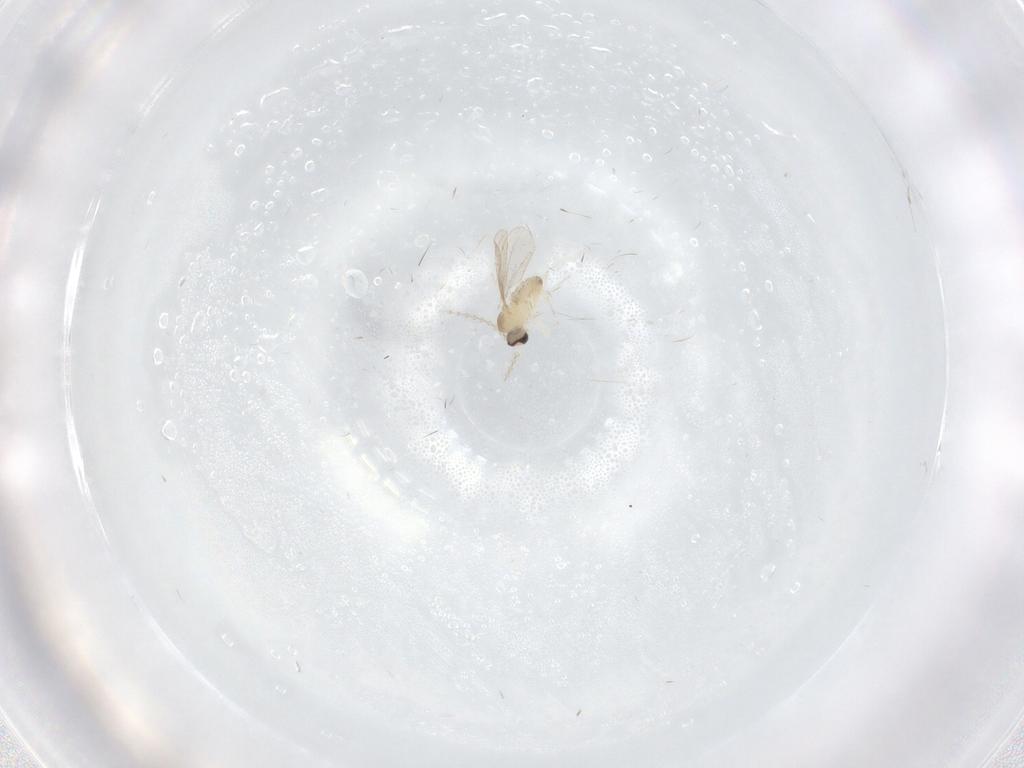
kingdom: Animalia
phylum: Arthropoda
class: Insecta
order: Diptera
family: Cecidomyiidae
